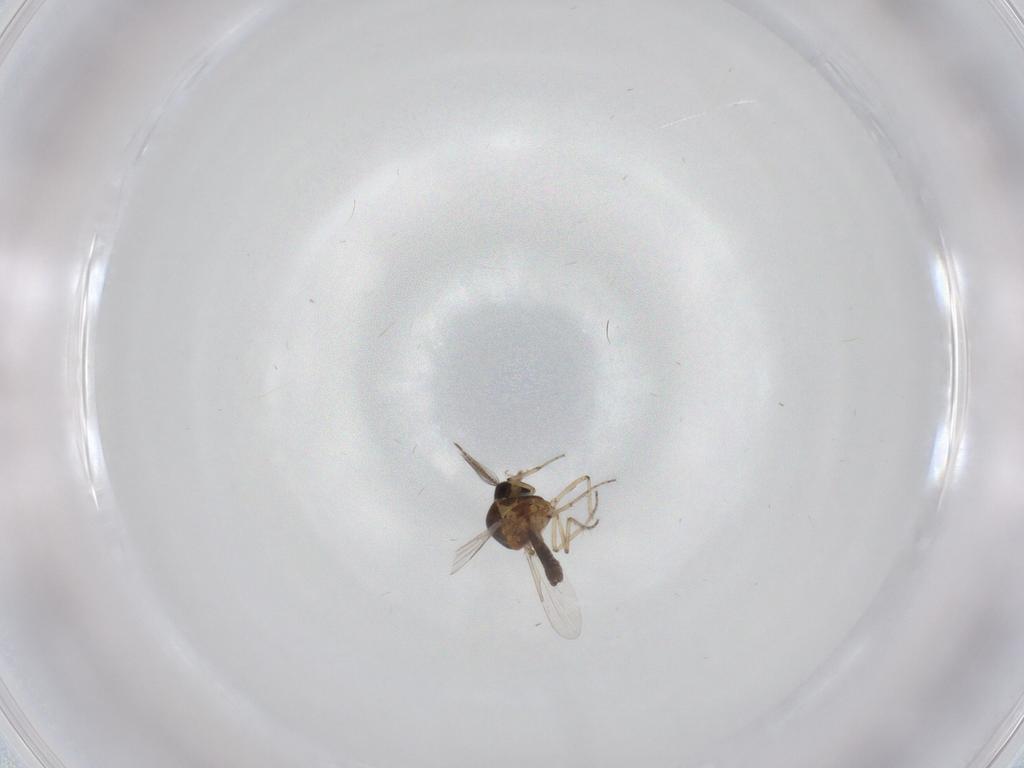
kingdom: Animalia
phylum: Arthropoda
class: Insecta
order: Diptera
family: Ceratopogonidae
